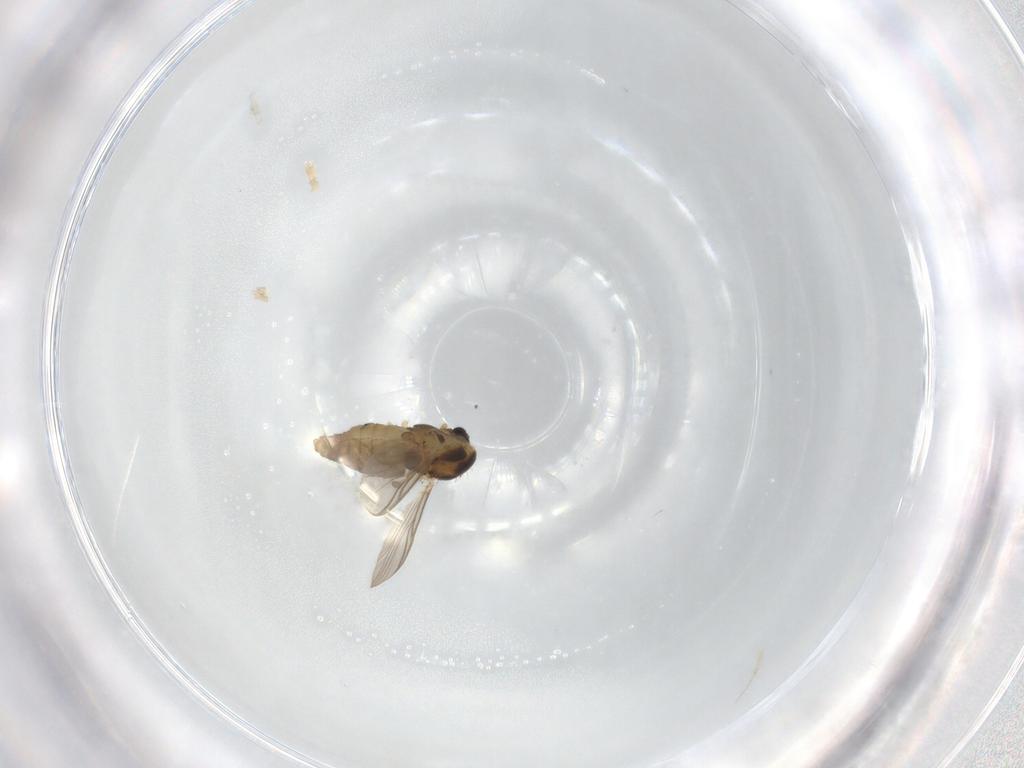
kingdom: Animalia
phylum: Arthropoda
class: Insecta
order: Diptera
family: Chironomidae
